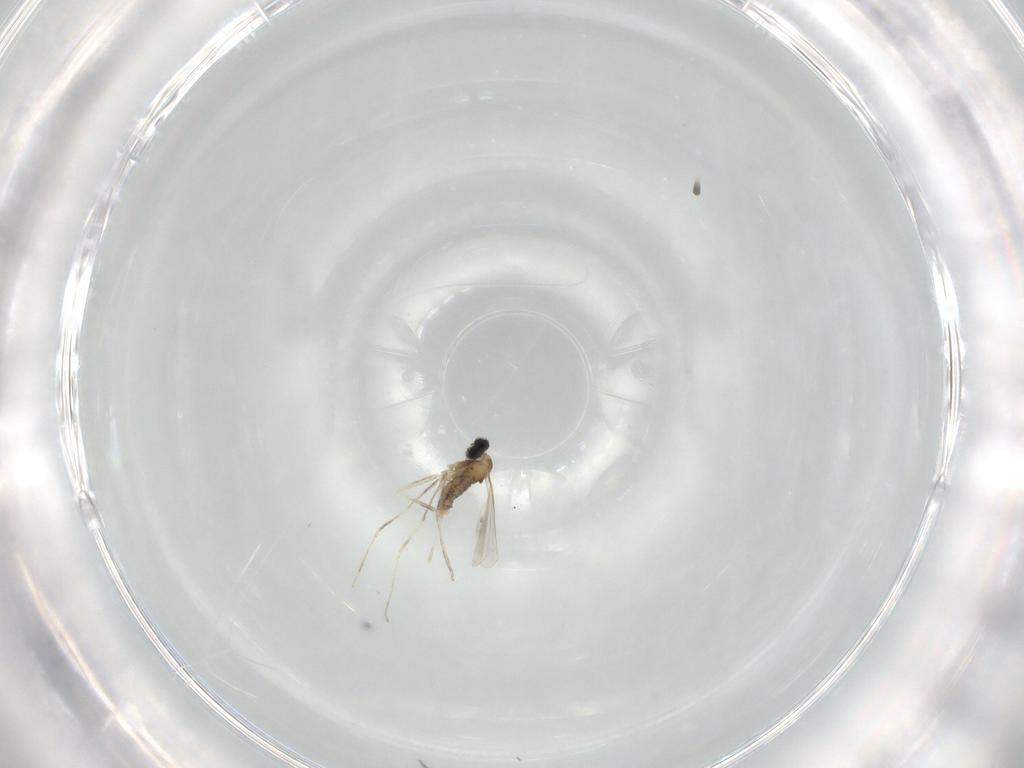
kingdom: Animalia
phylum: Arthropoda
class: Insecta
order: Diptera
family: Cecidomyiidae
